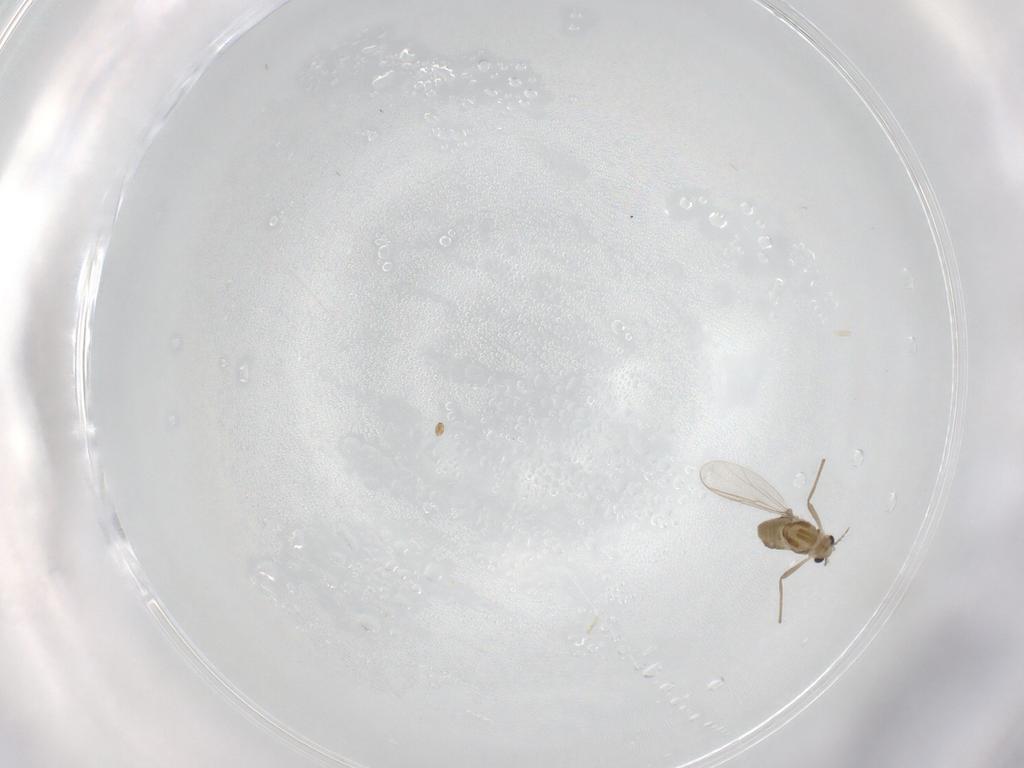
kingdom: Animalia
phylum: Arthropoda
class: Insecta
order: Diptera
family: Chironomidae
